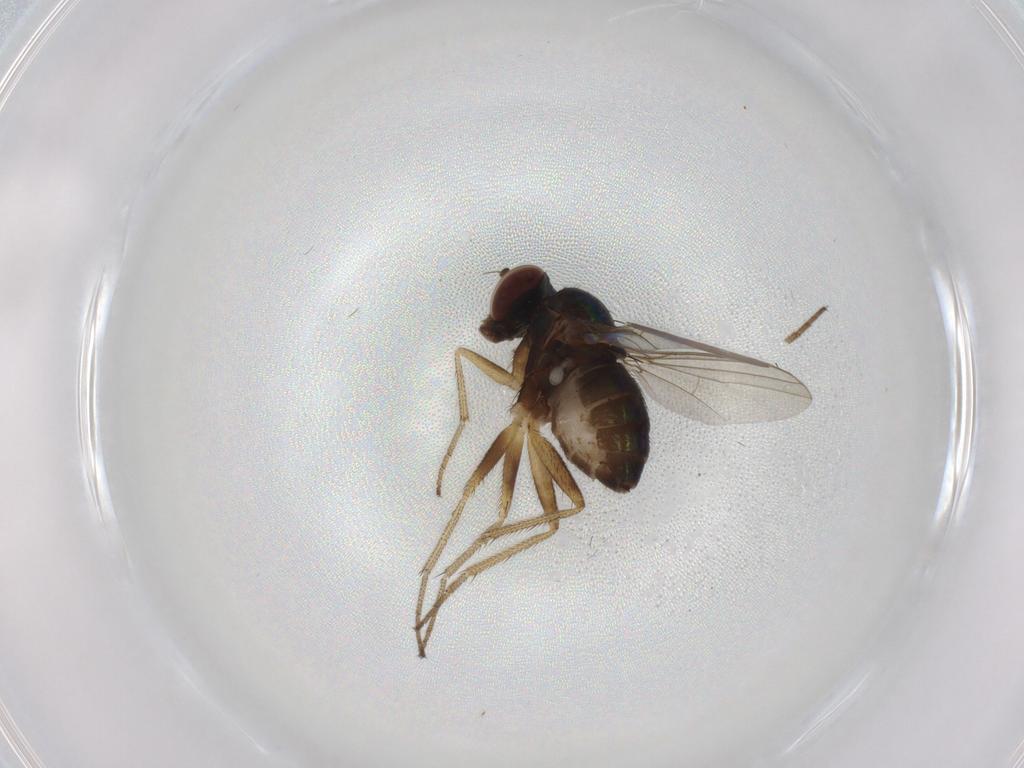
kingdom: Animalia
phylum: Arthropoda
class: Insecta
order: Diptera
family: Dolichopodidae
